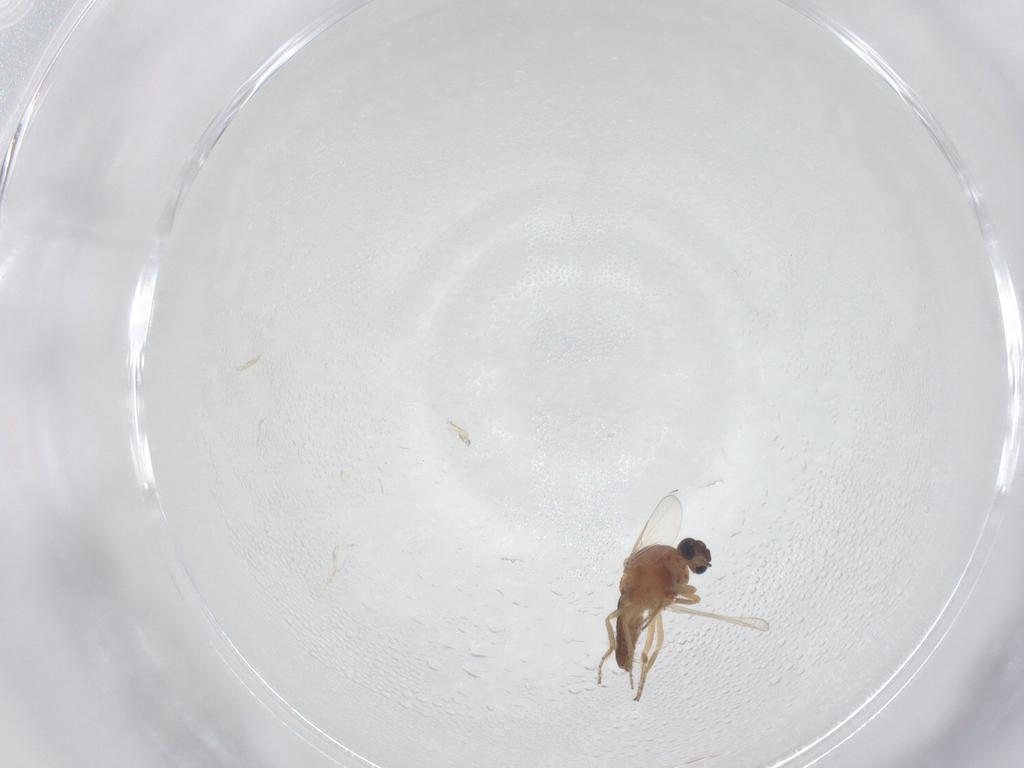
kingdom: Animalia
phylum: Arthropoda
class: Insecta
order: Diptera
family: Ceratopogonidae
